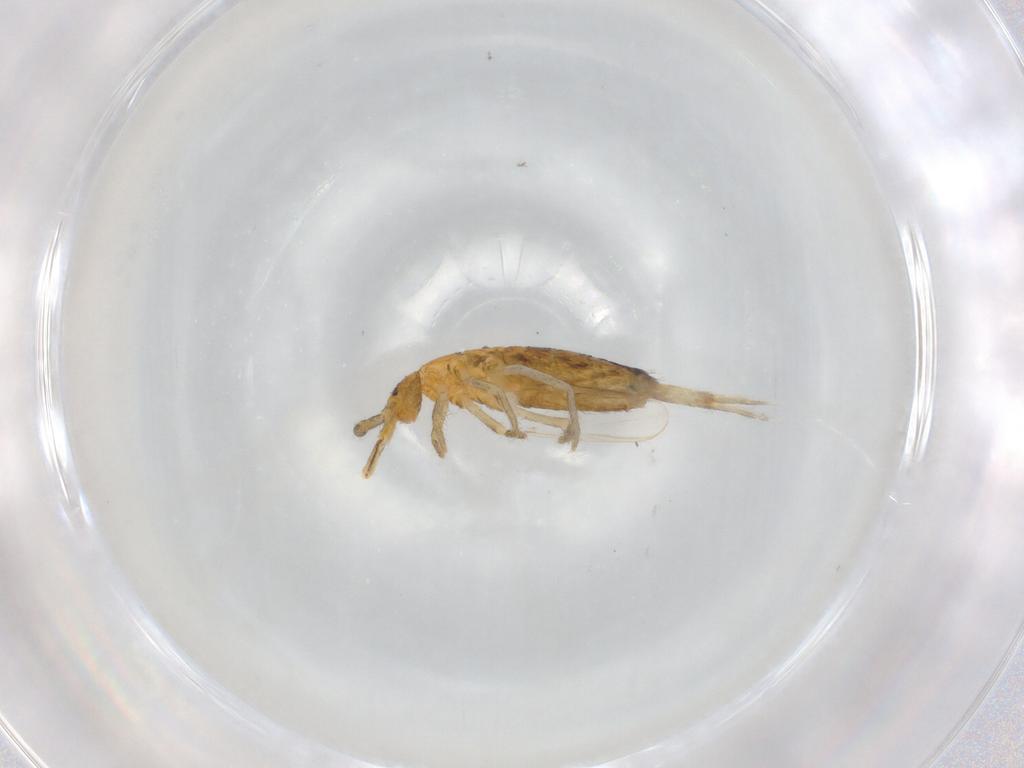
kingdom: Animalia
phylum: Arthropoda
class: Collembola
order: Entomobryomorpha
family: Entomobryidae
